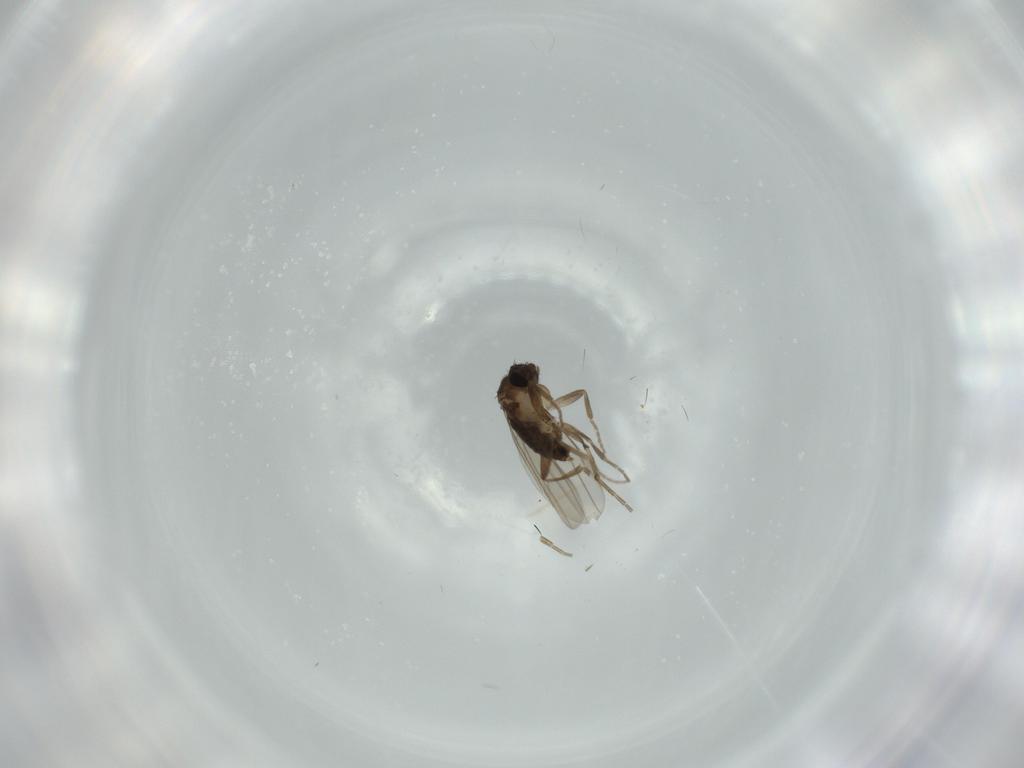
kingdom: Animalia
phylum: Arthropoda
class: Insecta
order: Diptera
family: Phoridae
